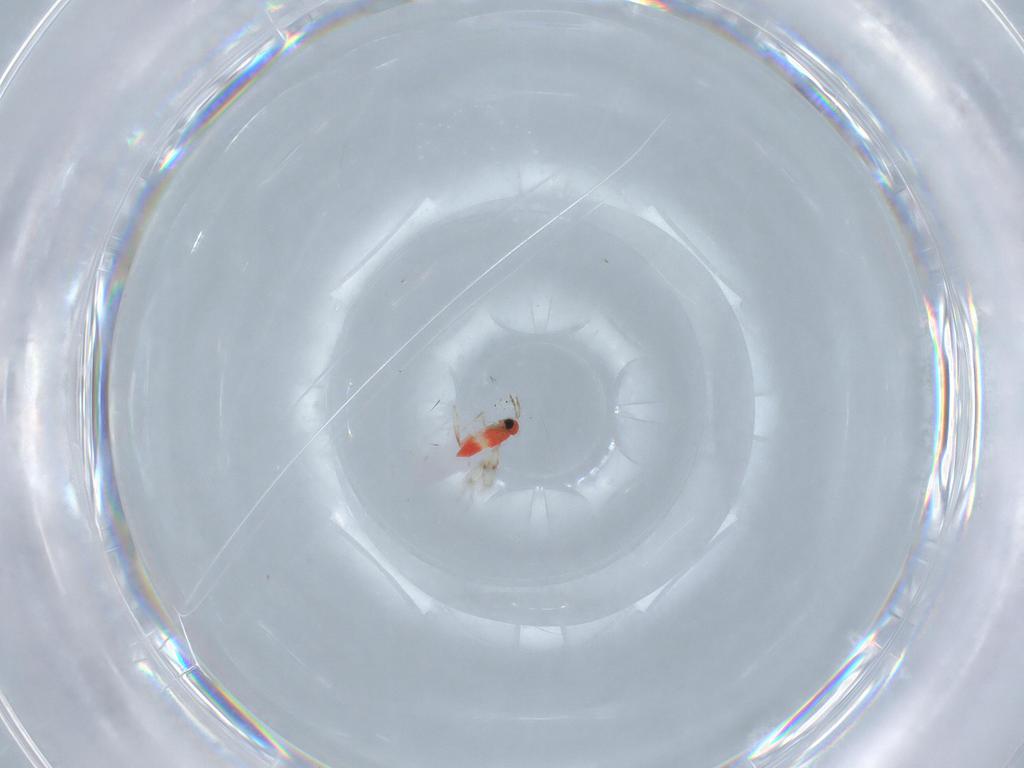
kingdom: Animalia
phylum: Arthropoda
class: Insecta
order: Hymenoptera
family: Trichogrammatidae
